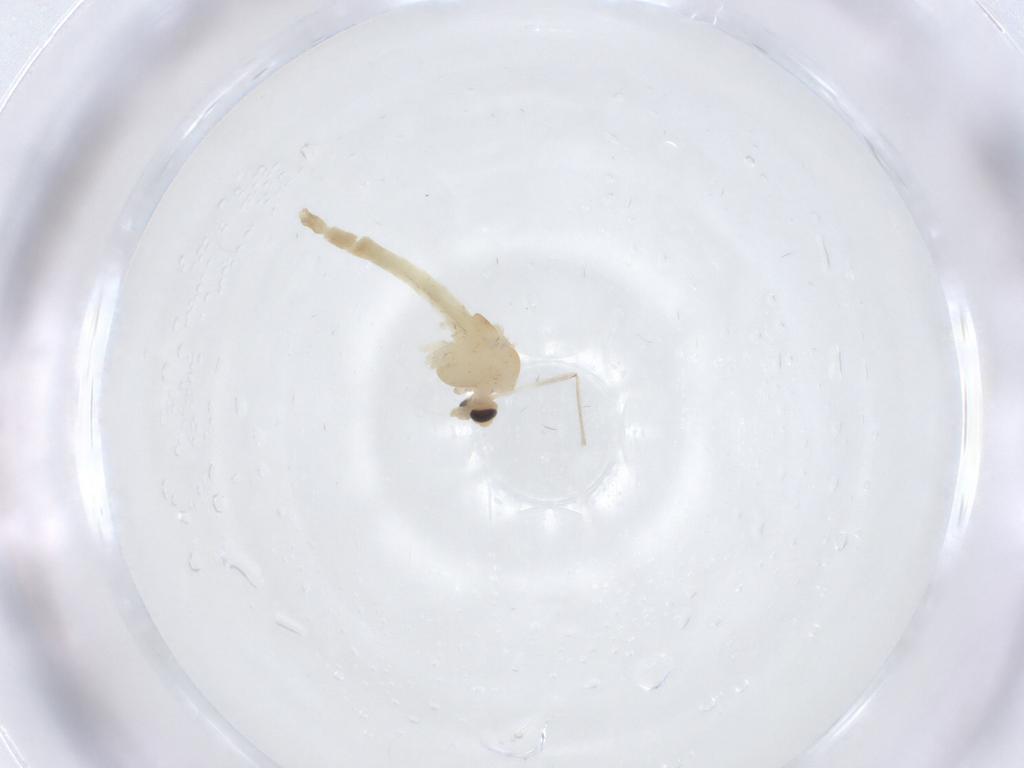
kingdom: Animalia
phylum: Arthropoda
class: Insecta
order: Diptera
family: Chironomidae
